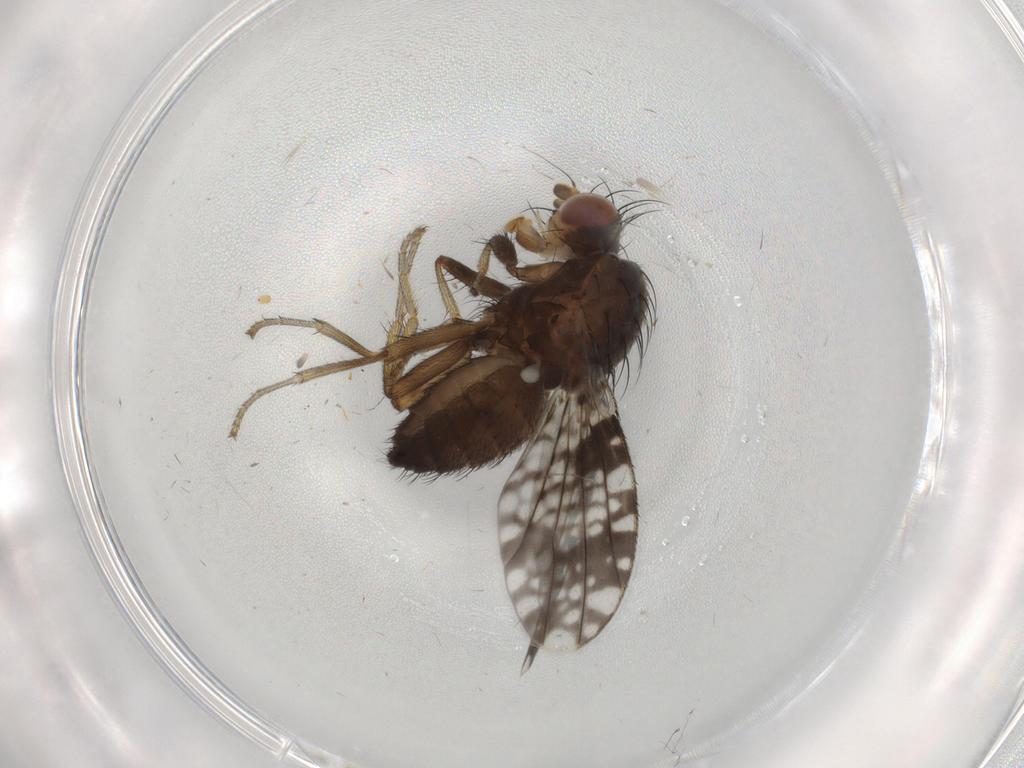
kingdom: Animalia
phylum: Arthropoda
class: Insecta
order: Diptera
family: Tephritidae
